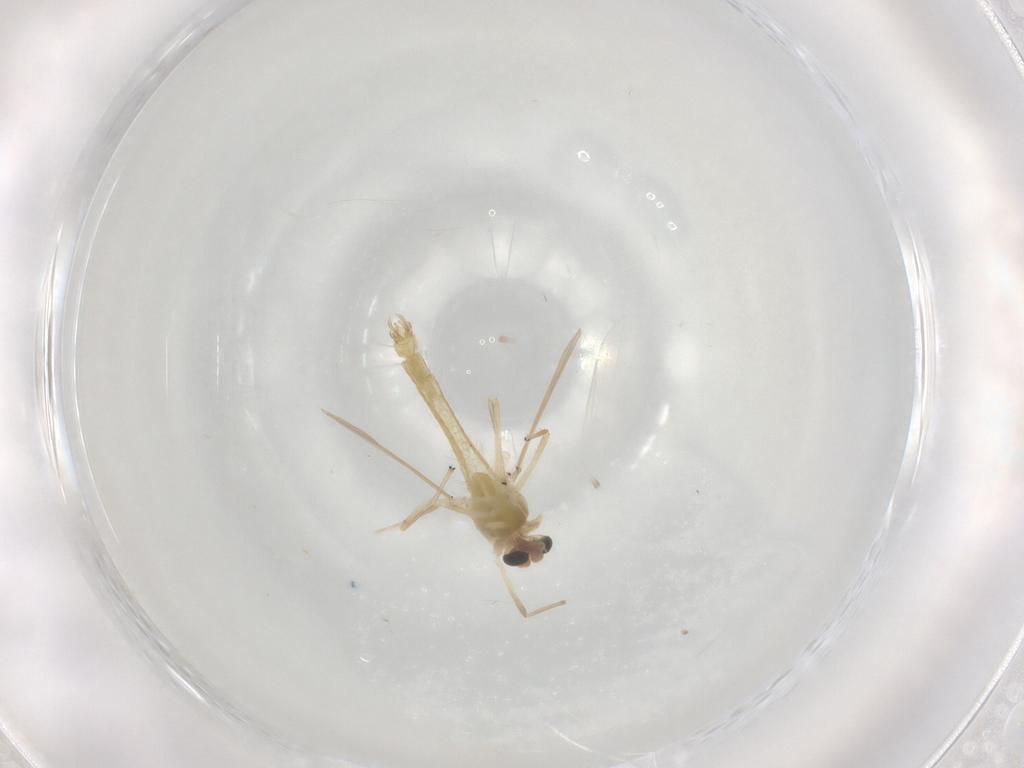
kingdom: Animalia
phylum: Arthropoda
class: Insecta
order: Diptera
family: Chironomidae
